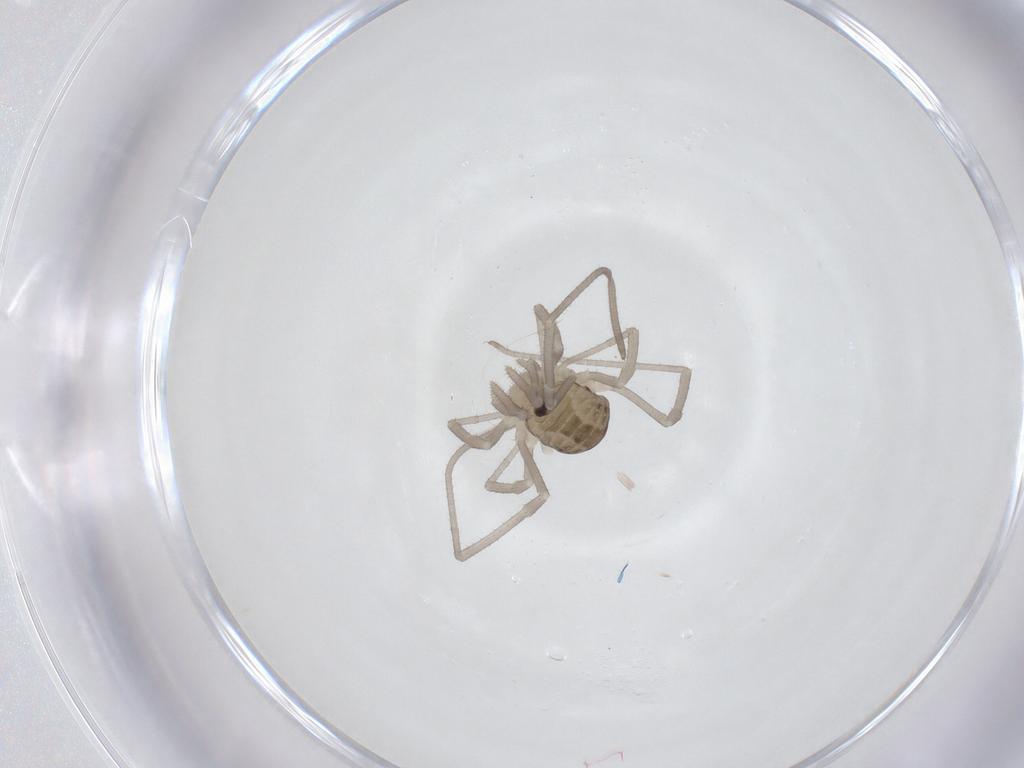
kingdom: Animalia
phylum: Arthropoda
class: Arachnida
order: Opiliones
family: Sclerosomatidae
